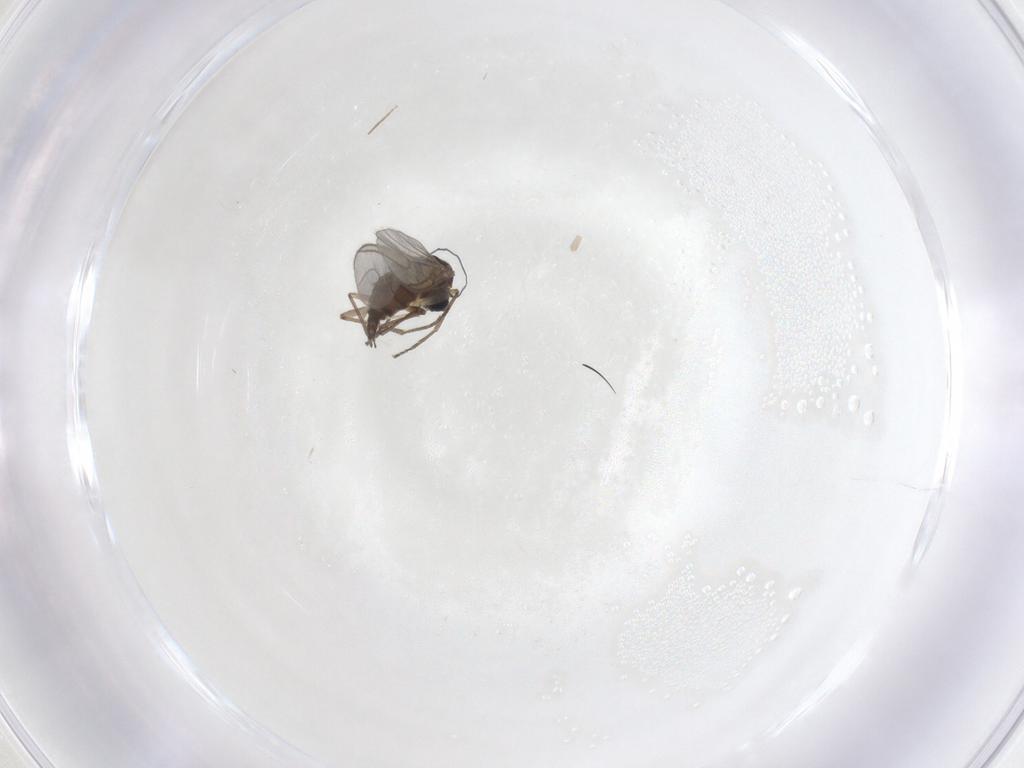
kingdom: Animalia
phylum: Arthropoda
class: Insecta
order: Diptera
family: Sciaridae
